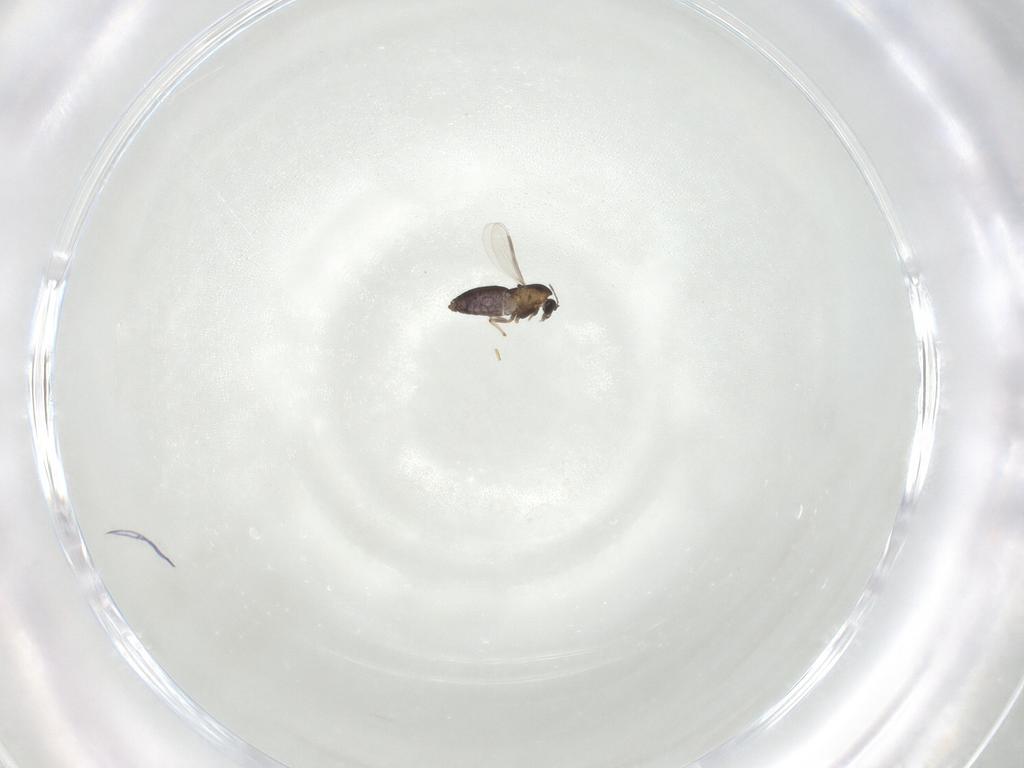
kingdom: Animalia
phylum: Arthropoda
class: Insecta
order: Diptera
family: Chironomidae
